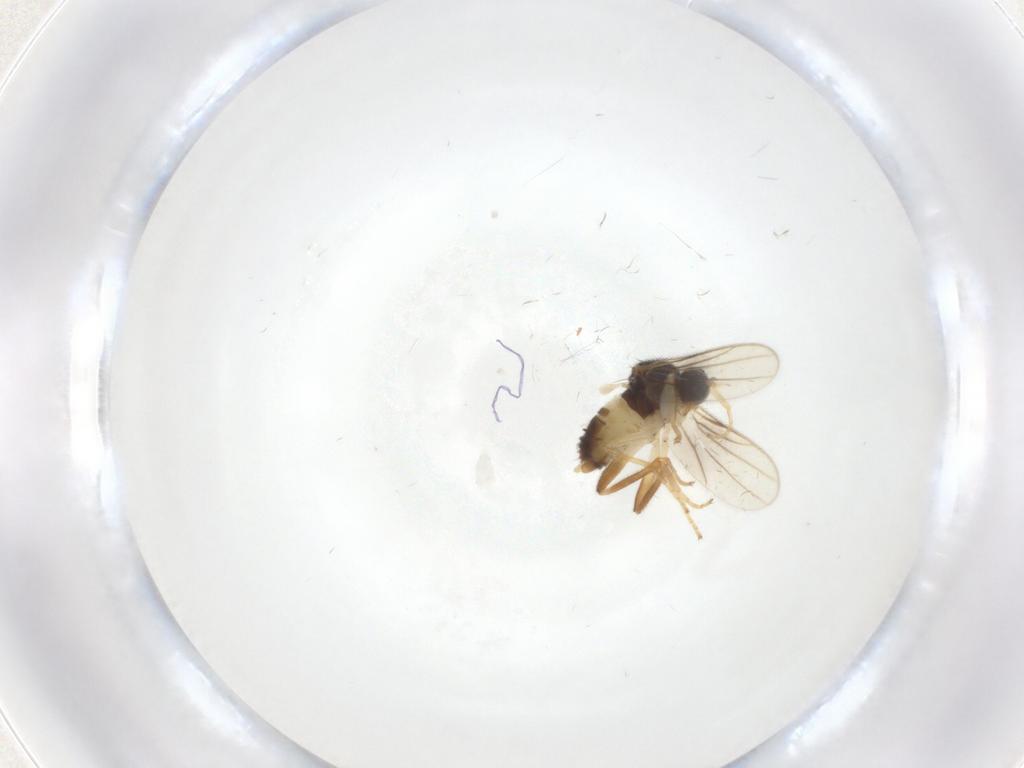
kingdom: Animalia
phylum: Arthropoda
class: Insecta
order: Diptera
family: Hybotidae
